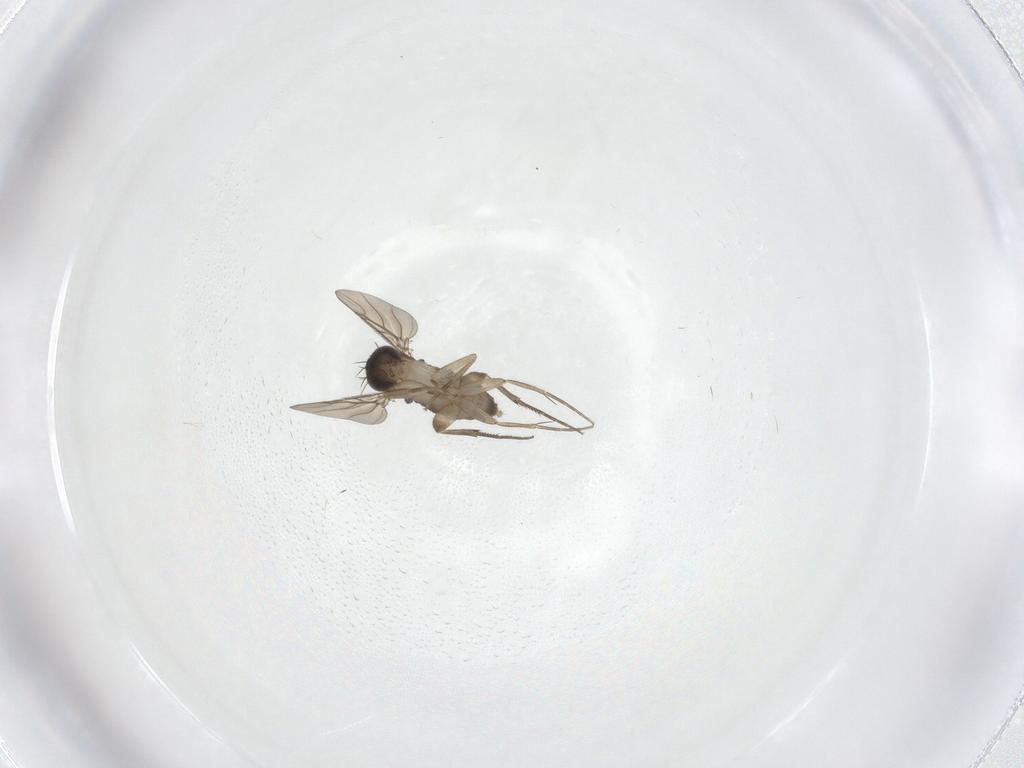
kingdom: Animalia
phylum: Arthropoda
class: Insecta
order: Diptera
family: Phoridae
